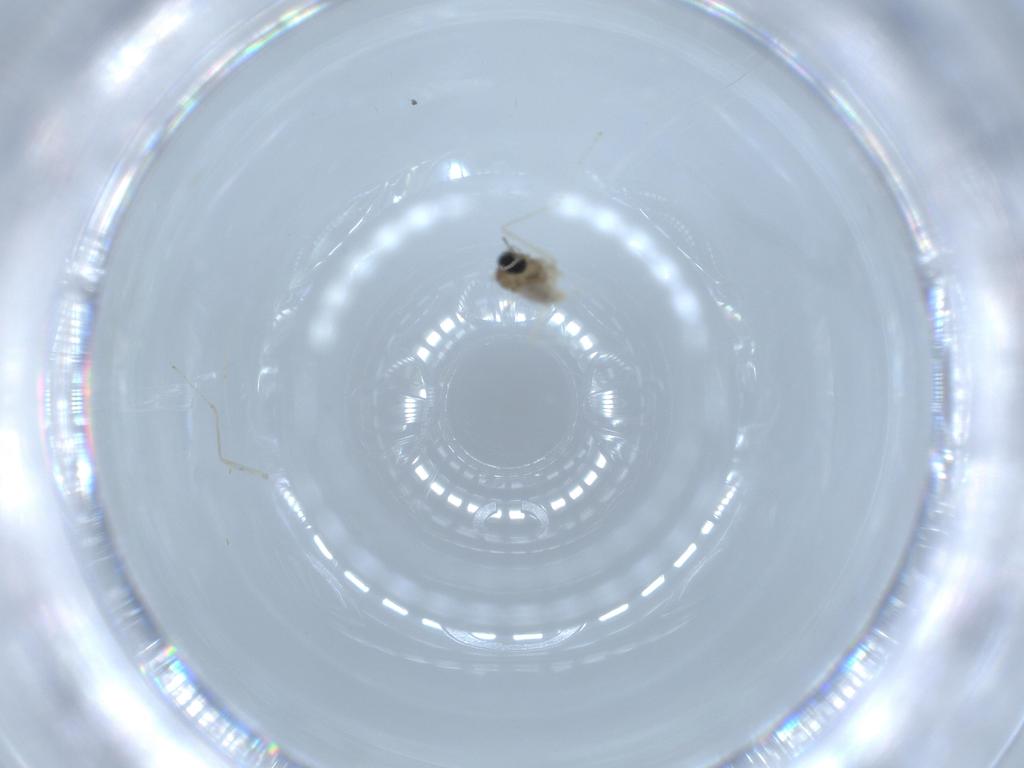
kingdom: Animalia
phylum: Arthropoda
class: Insecta
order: Diptera
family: Cecidomyiidae
